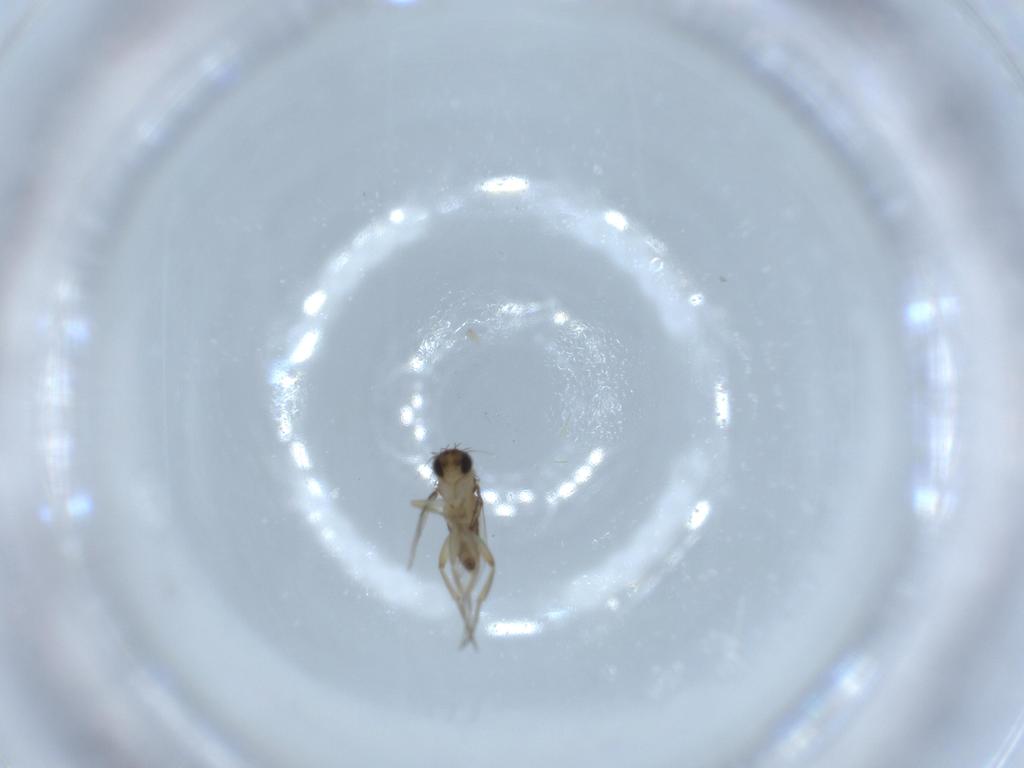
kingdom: Animalia
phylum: Arthropoda
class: Insecta
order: Diptera
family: Phoridae
